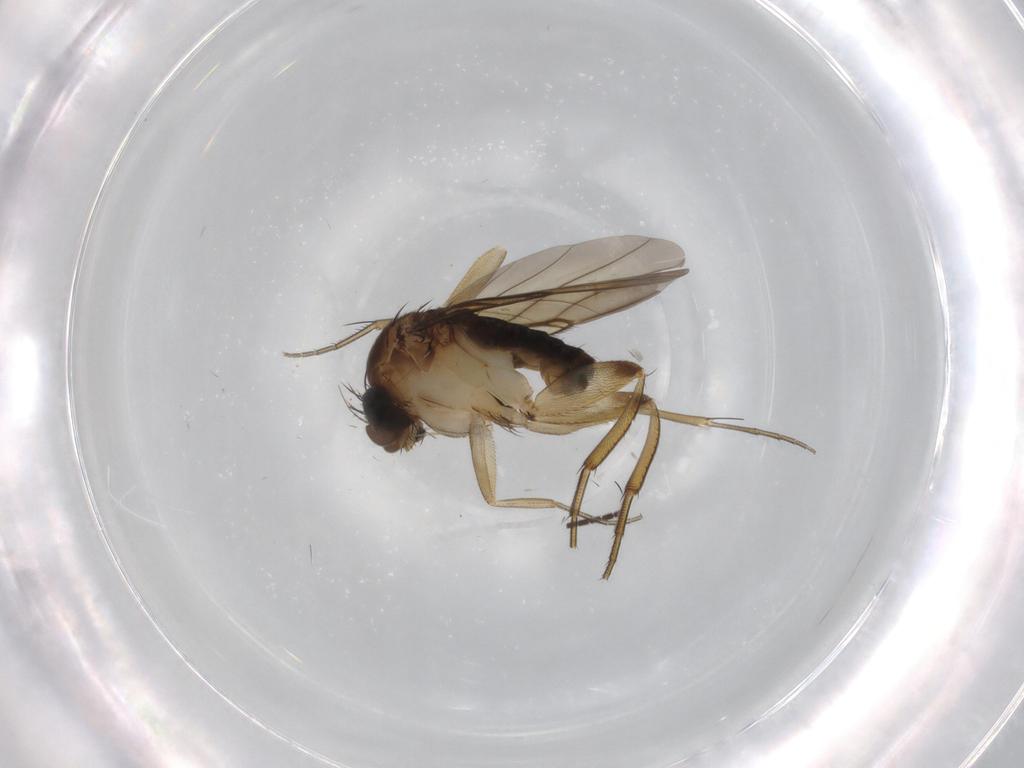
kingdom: Animalia
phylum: Arthropoda
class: Insecta
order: Diptera
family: Phoridae
